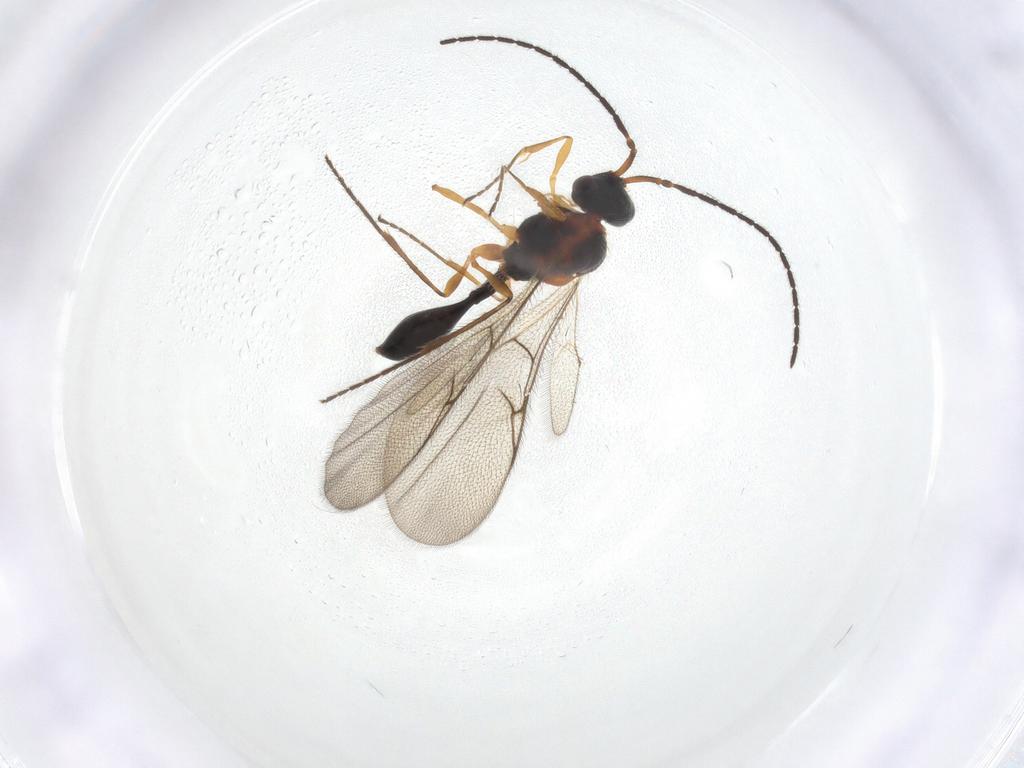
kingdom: Animalia
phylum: Arthropoda
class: Insecta
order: Hymenoptera
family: Diapriidae
